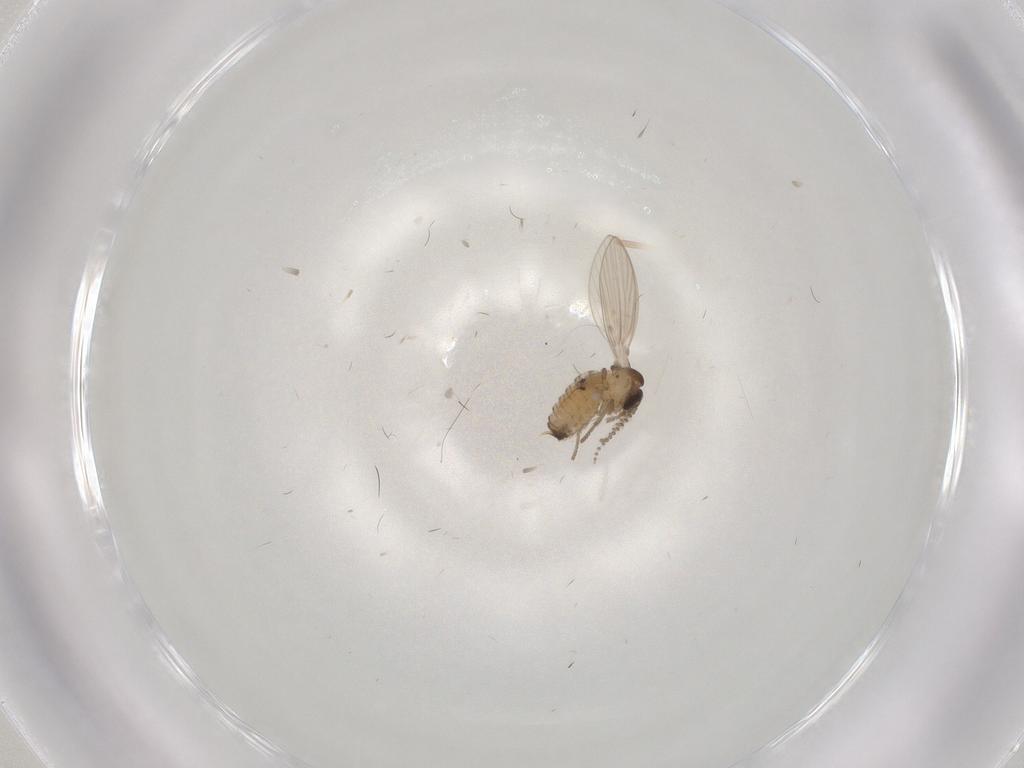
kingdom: Animalia
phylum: Arthropoda
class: Insecta
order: Diptera
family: Cecidomyiidae
